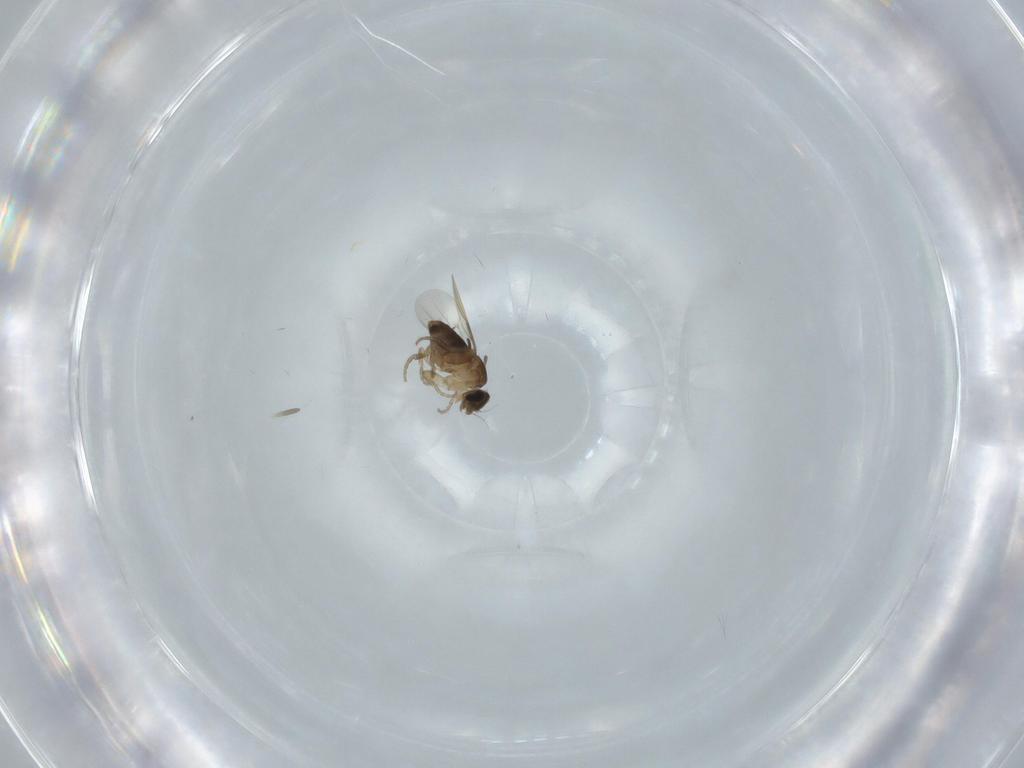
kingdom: Animalia
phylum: Arthropoda
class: Insecta
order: Diptera
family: Phoridae
